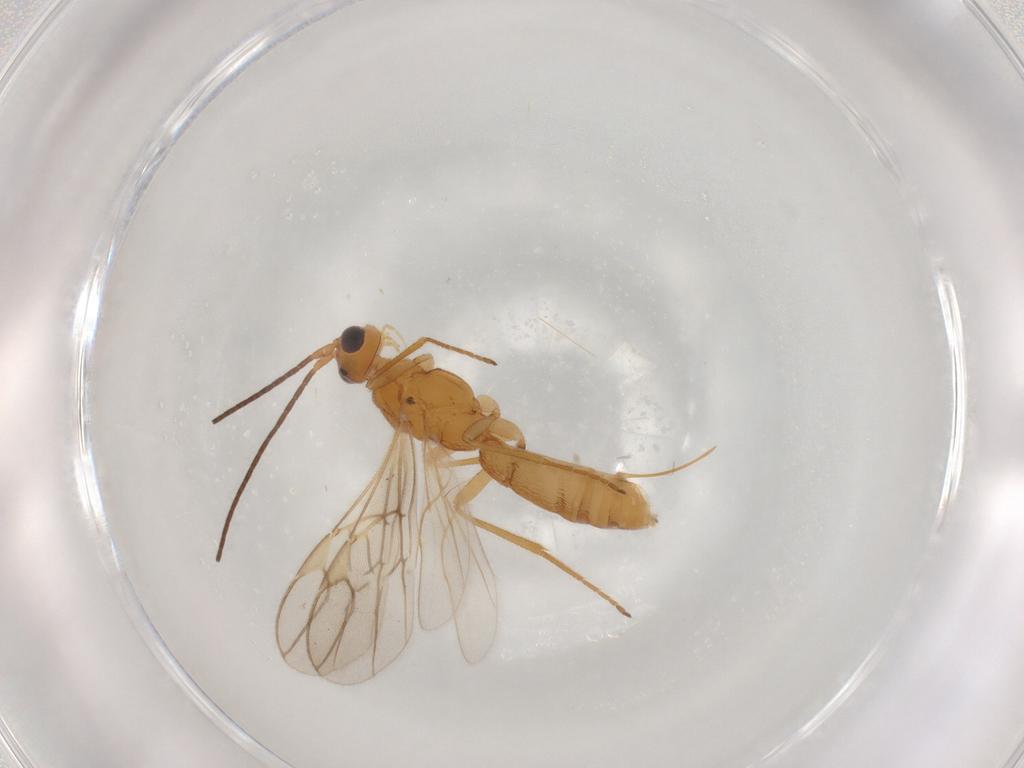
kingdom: Animalia
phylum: Arthropoda
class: Insecta
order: Hymenoptera
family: Braconidae
